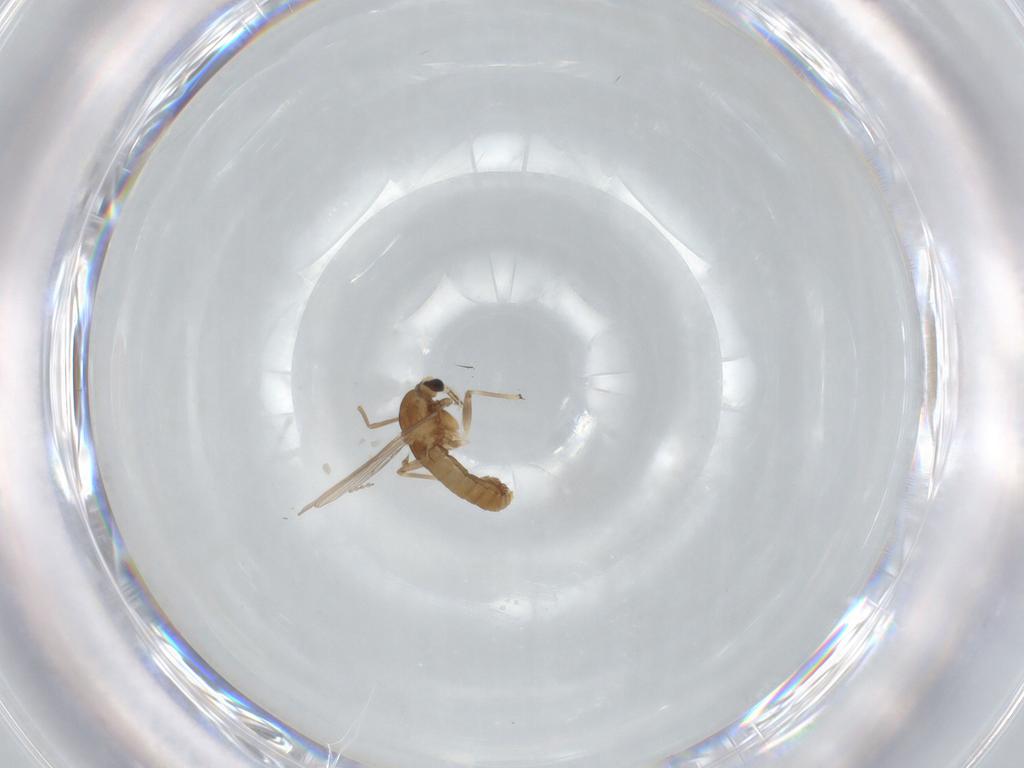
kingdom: Animalia
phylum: Arthropoda
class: Insecta
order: Diptera
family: Chironomidae
